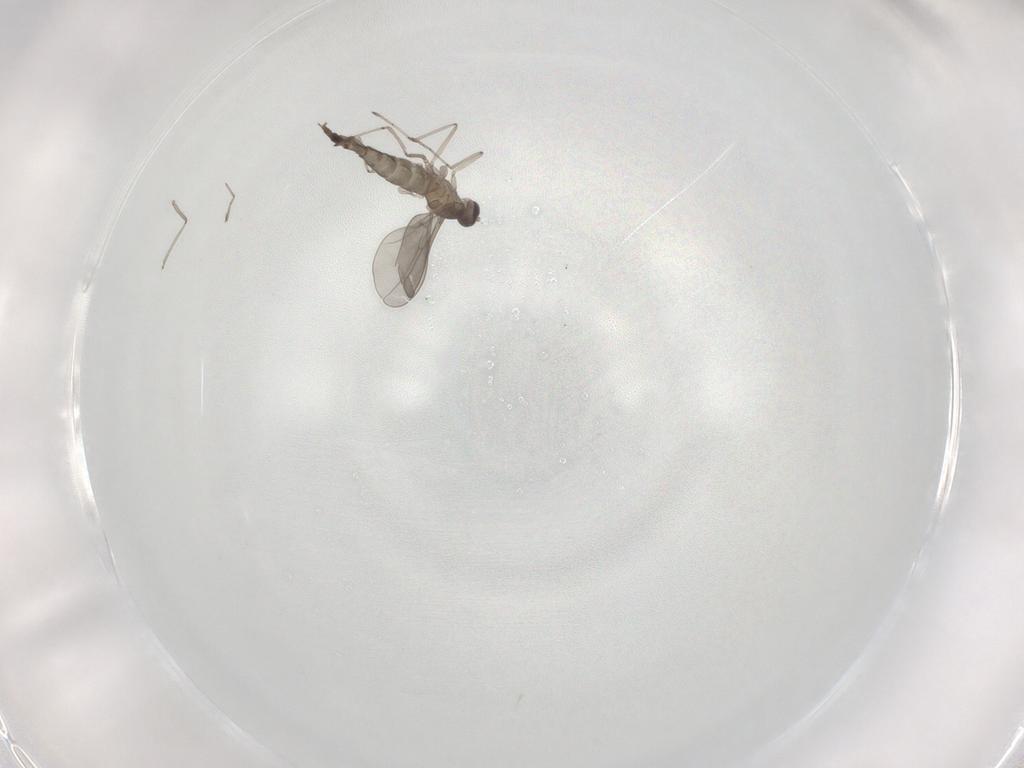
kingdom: Animalia
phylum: Arthropoda
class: Insecta
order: Diptera
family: Cecidomyiidae
